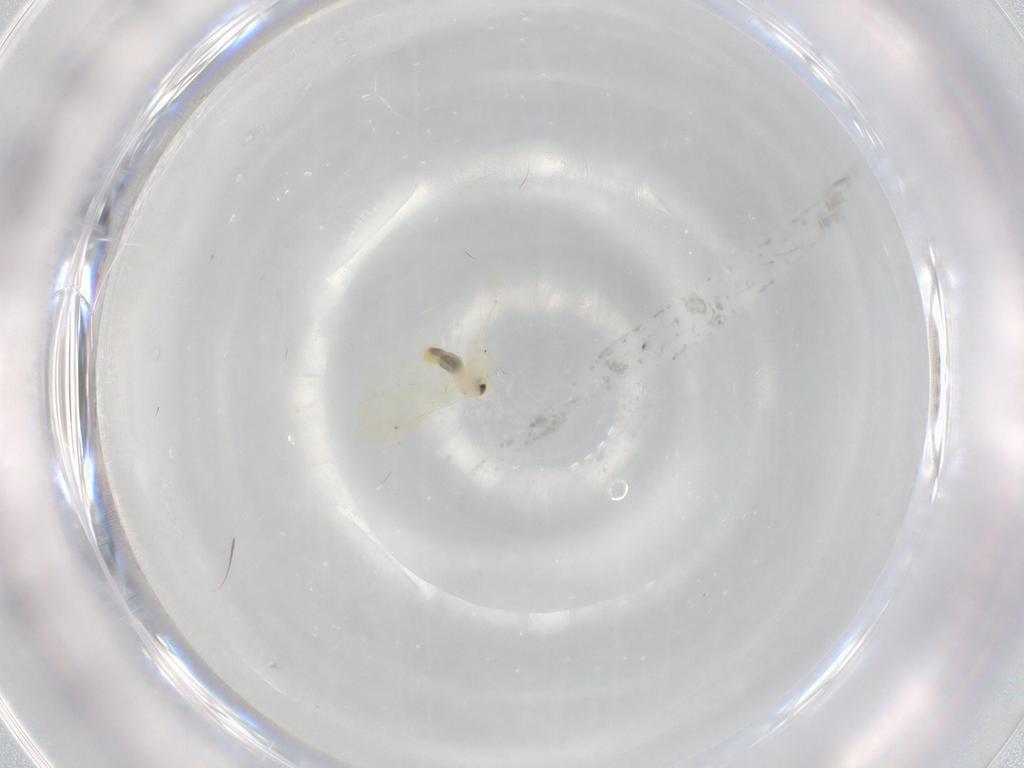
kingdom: Animalia
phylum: Arthropoda
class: Insecta
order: Hemiptera
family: Aleyrodidae
